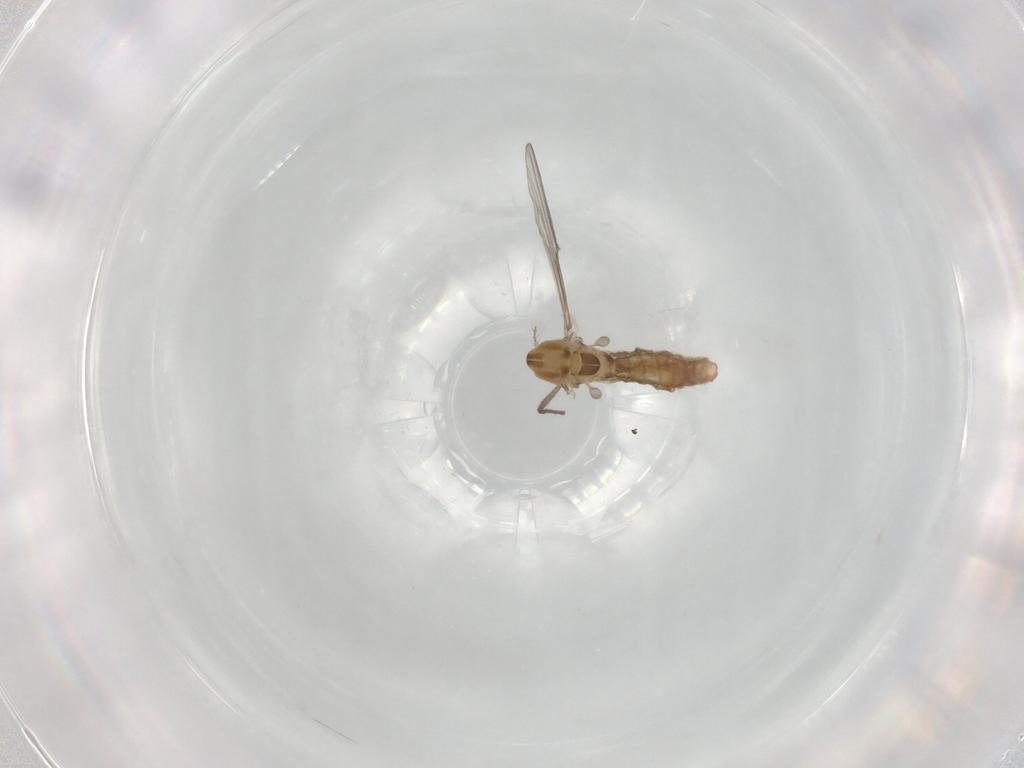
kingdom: Animalia
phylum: Arthropoda
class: Insecta
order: Diptera
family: Chironomidae
